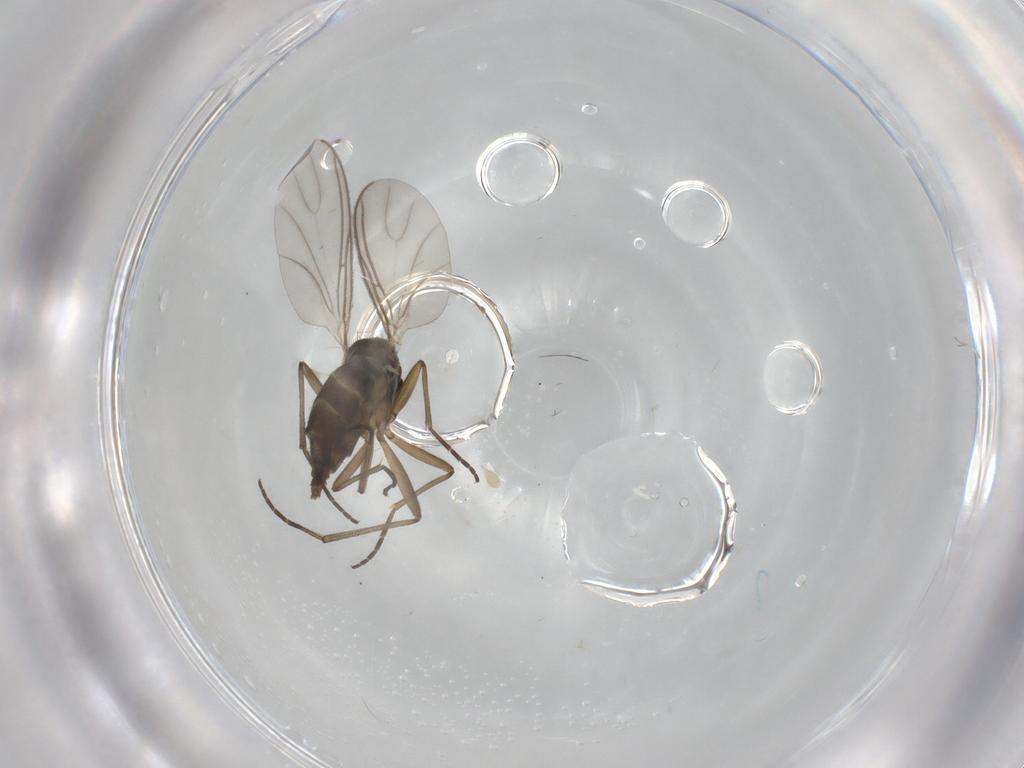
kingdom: Animalia
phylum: Arthropoda
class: Insecta
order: Diptera
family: Sciaridae
